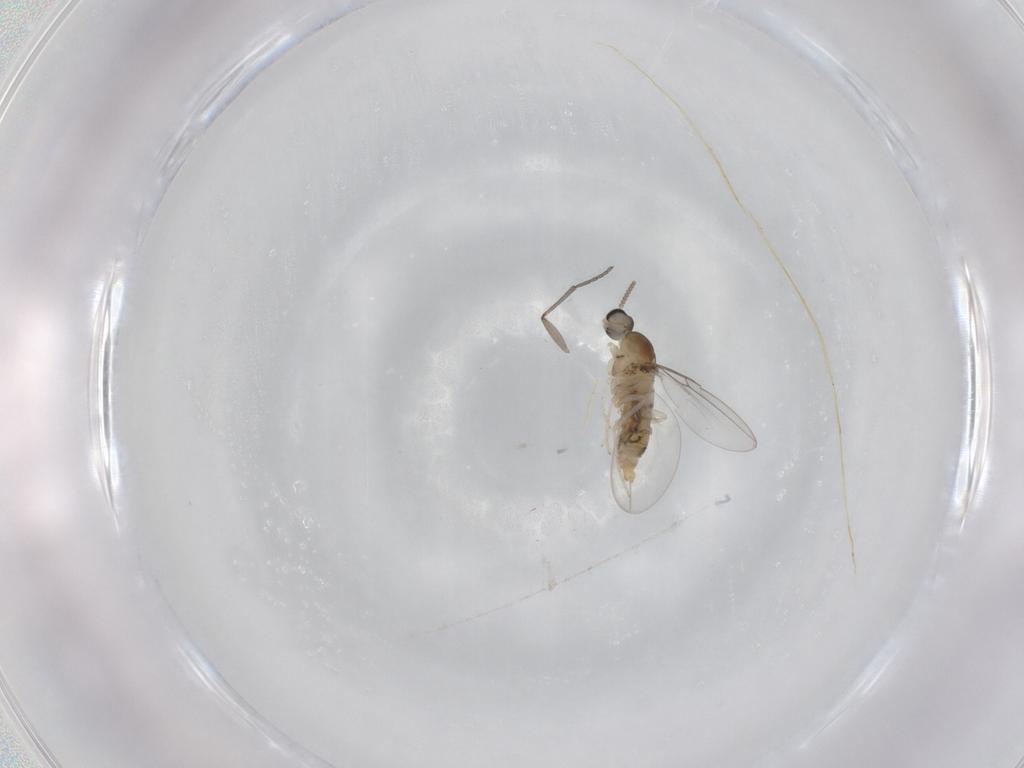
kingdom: Animalia
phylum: Arthropoda
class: Insecta
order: Diptera
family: Cecidomyiidae
